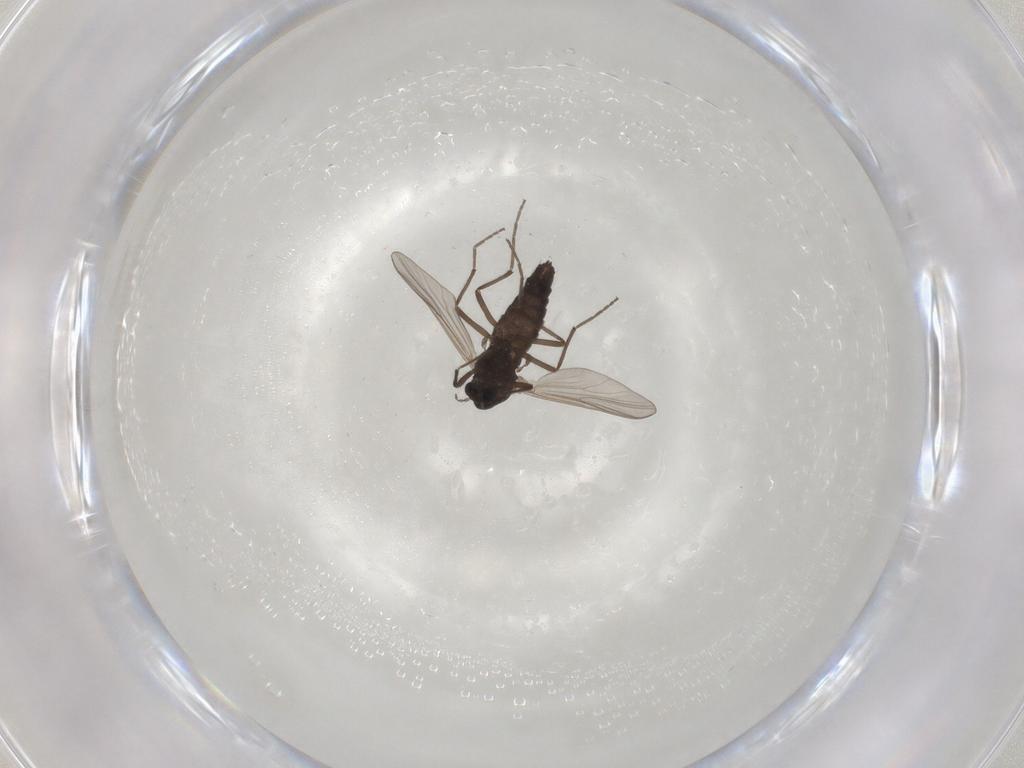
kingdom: Animalia
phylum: Arthropoda
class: Insecta
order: Diptera
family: Chironomidae
